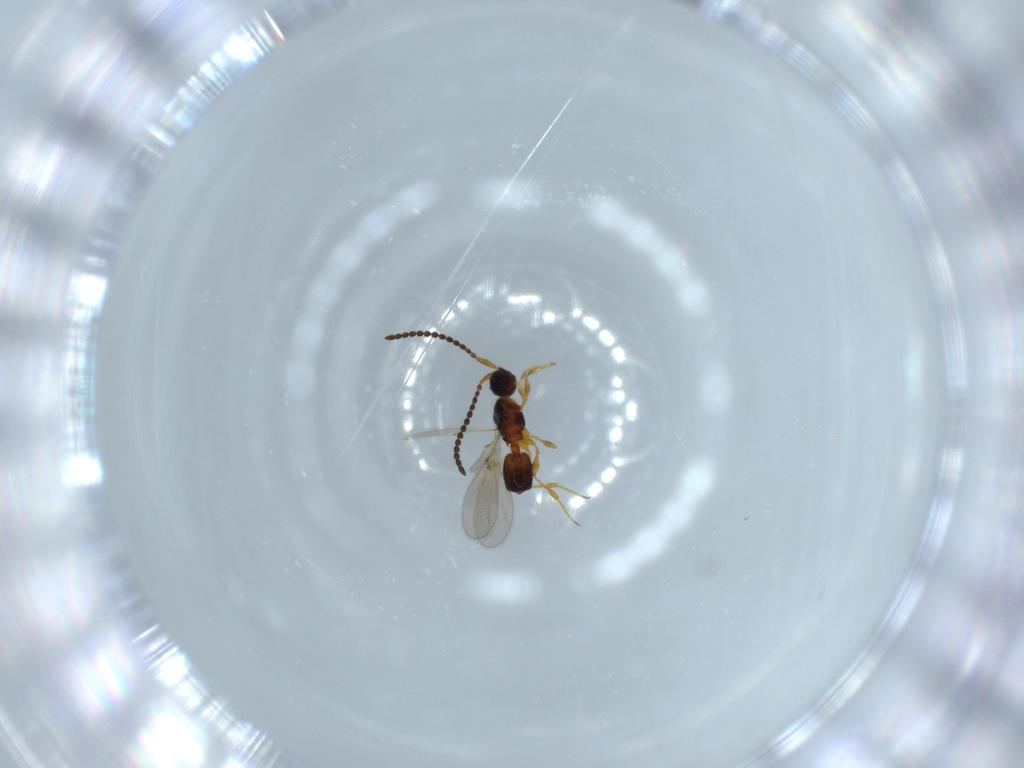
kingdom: Animalia
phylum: Arthropoda
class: Insecta
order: Hymenoptera
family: Diapriidae
